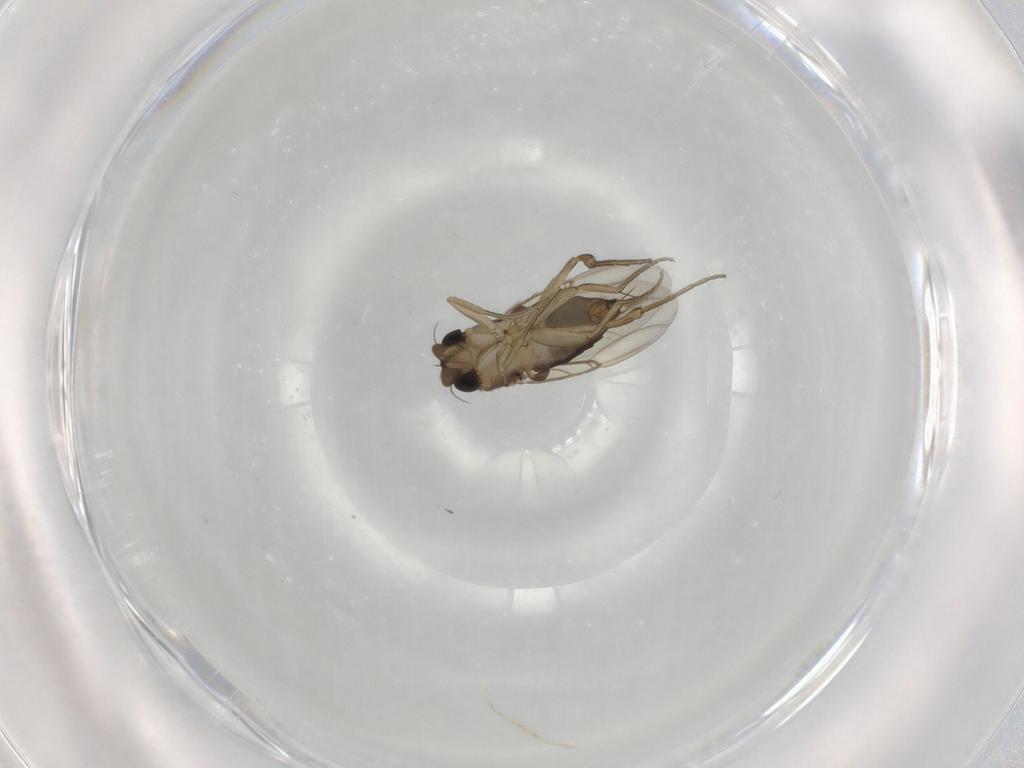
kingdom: Animalia
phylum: Arthropoda
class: Insecta
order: Diptera
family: Phoridae
